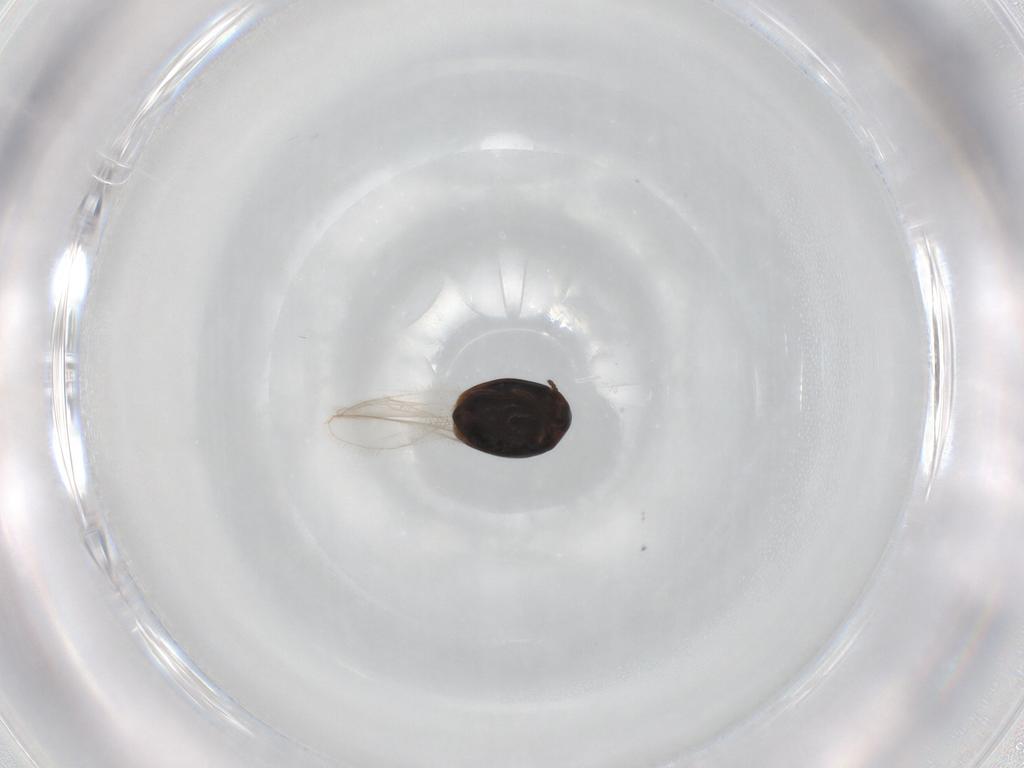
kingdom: Animalia
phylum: Arthropoda
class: Insecta
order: Coleoptera
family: Corylophidae
